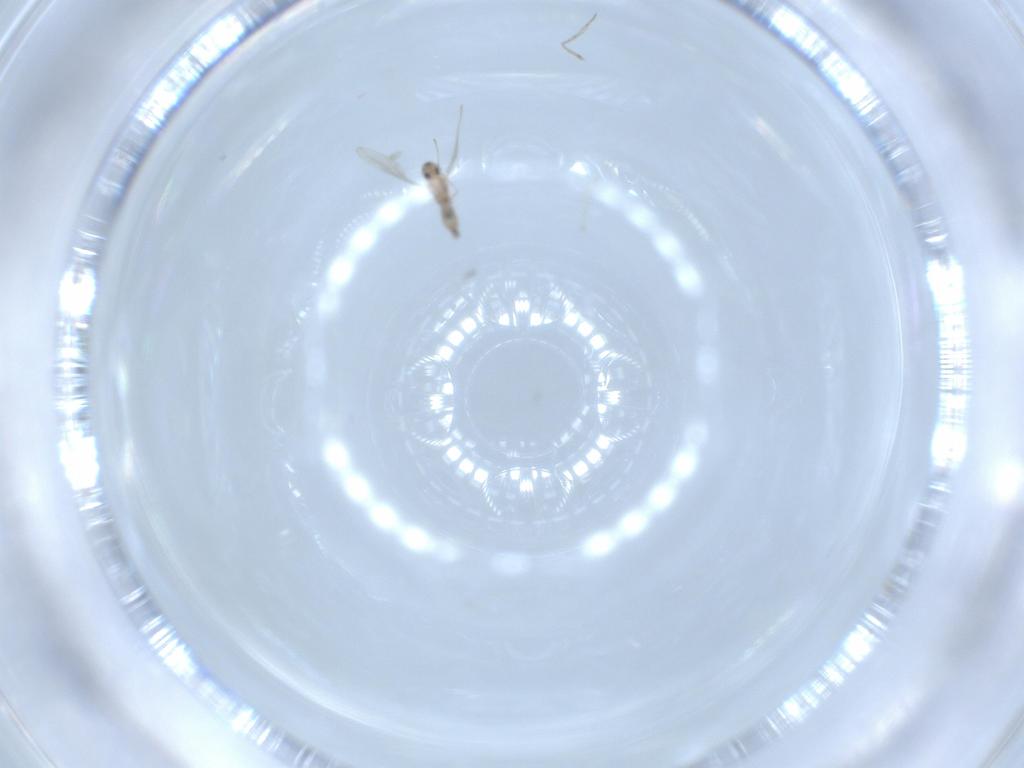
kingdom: Animalia
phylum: Arthropoda
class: Insecta
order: Diptera
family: Cecidomyiidae
